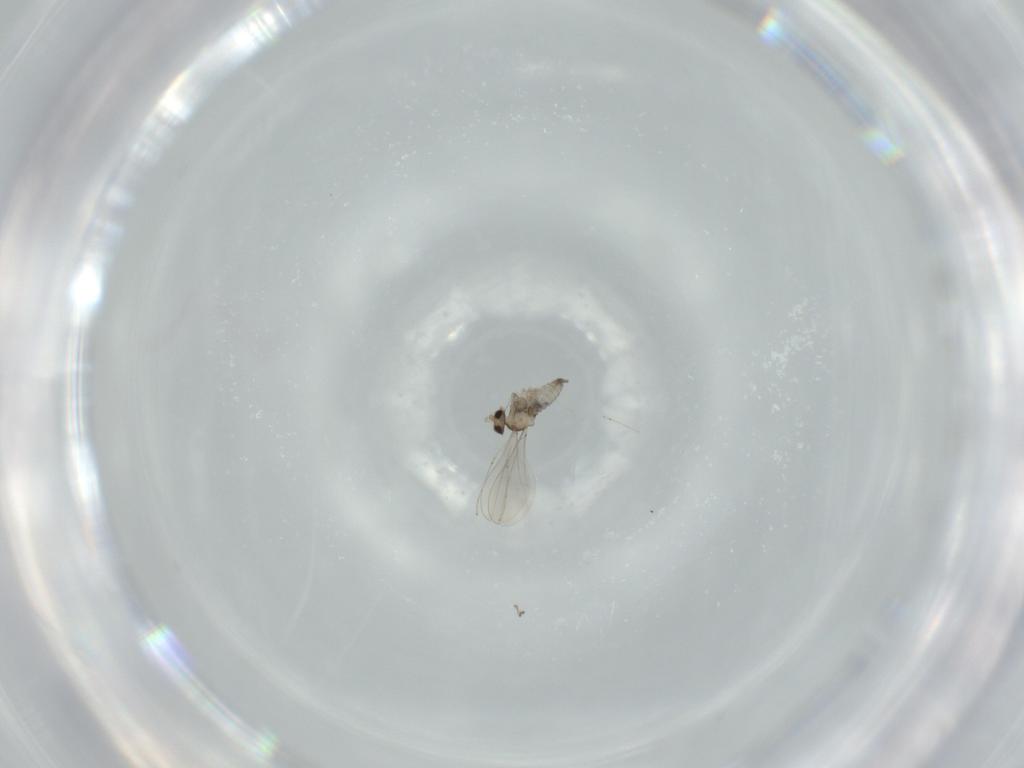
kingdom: Animalia
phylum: Arthropoda
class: Insecta
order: Diptera
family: Cecidomyiidae
